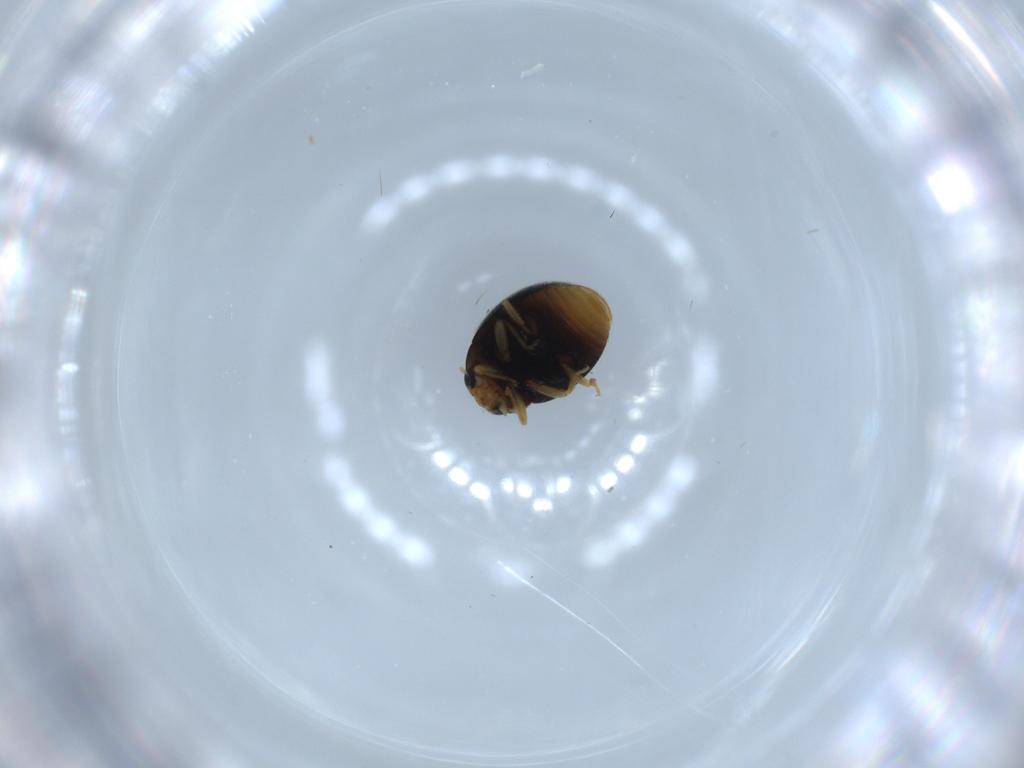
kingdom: Animalia
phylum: Arthropoda
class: Insecta
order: Coleoptera
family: Coccinellidae
